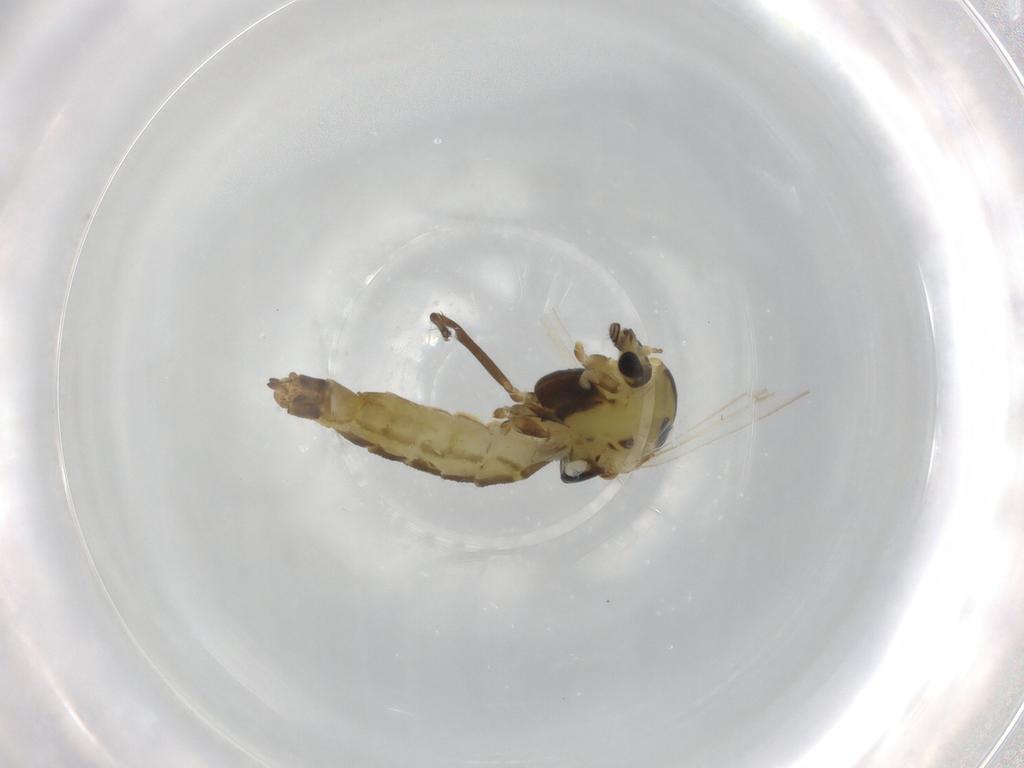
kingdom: Animalia
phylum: Arthropoda
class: Insecta
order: Diptera
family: Chironomidae
